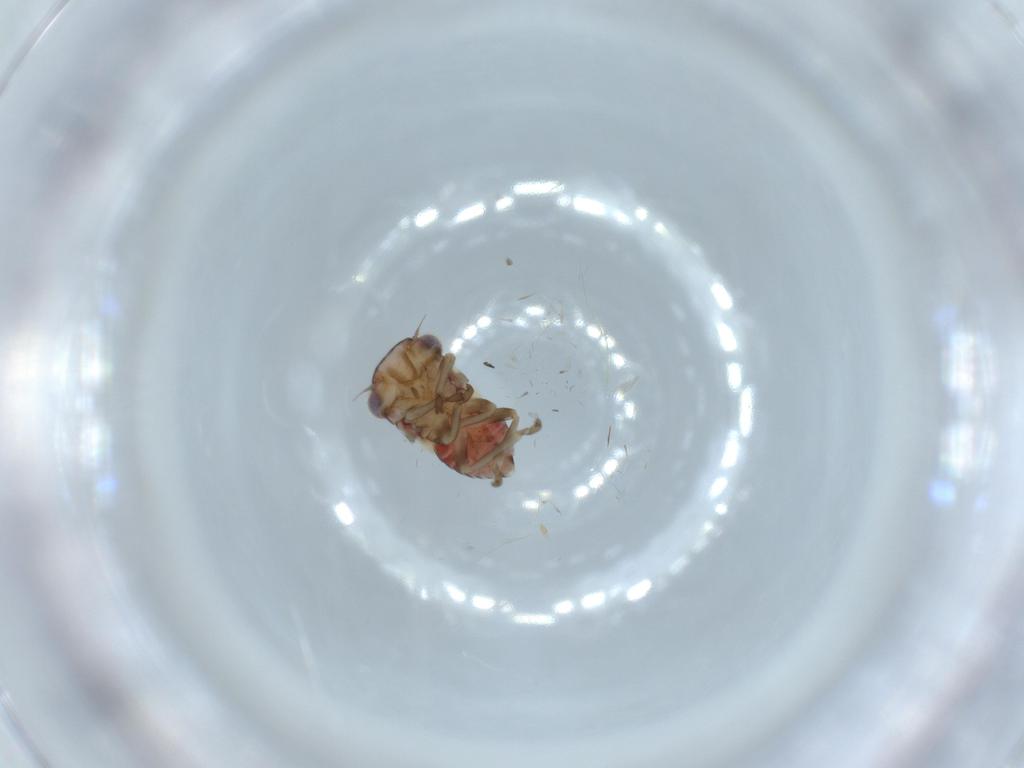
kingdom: Animalia
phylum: Arthropoda
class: Insecta
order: Hemiptera
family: Cicadellidae
